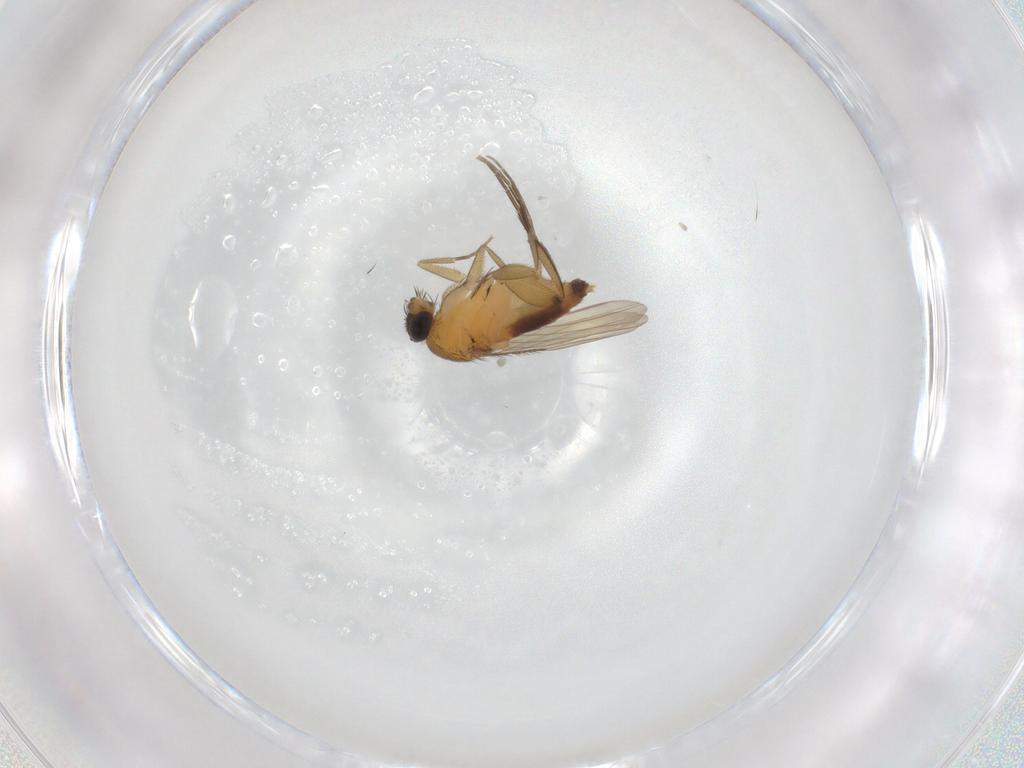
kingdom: Animalia
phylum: Arthropoda
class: Insecta
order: Diptera
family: Phoridae
